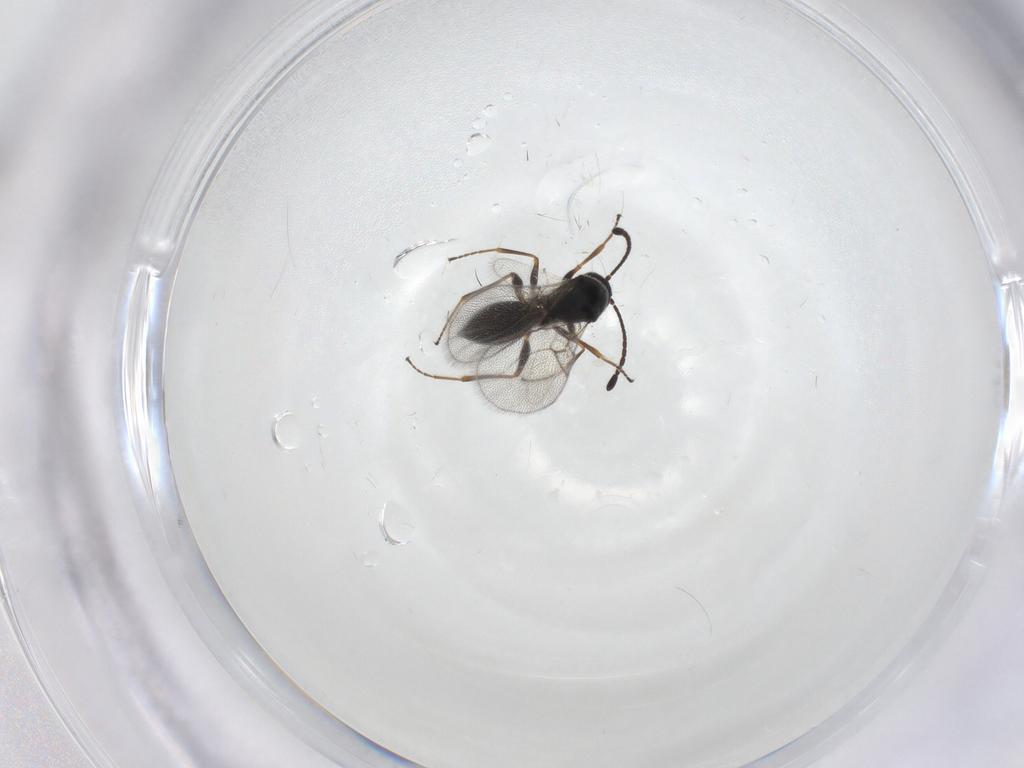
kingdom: Animalia
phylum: Arthropoda
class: Insecta
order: Hymenoptera
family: Figitidae
